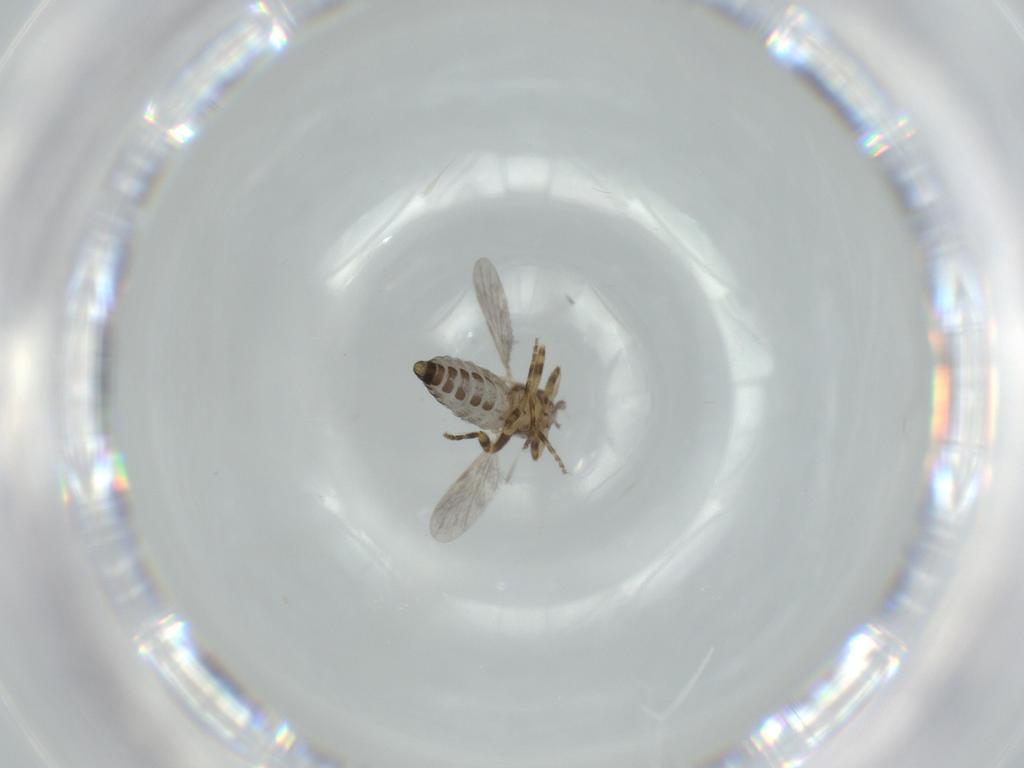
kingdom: Animalia
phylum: Arthropoda
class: Insecta
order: Diptera
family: Ceratopogonidae
